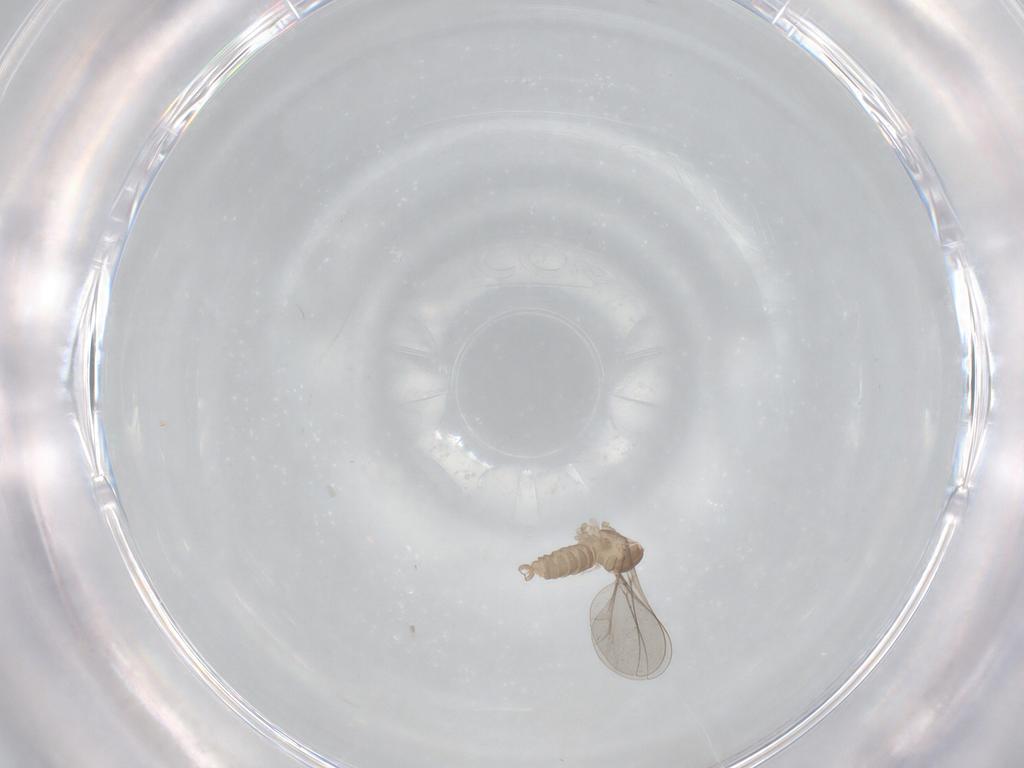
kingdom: Animalia
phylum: Arthropoda
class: Insecta
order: Diptera
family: Cecidomyiidae
